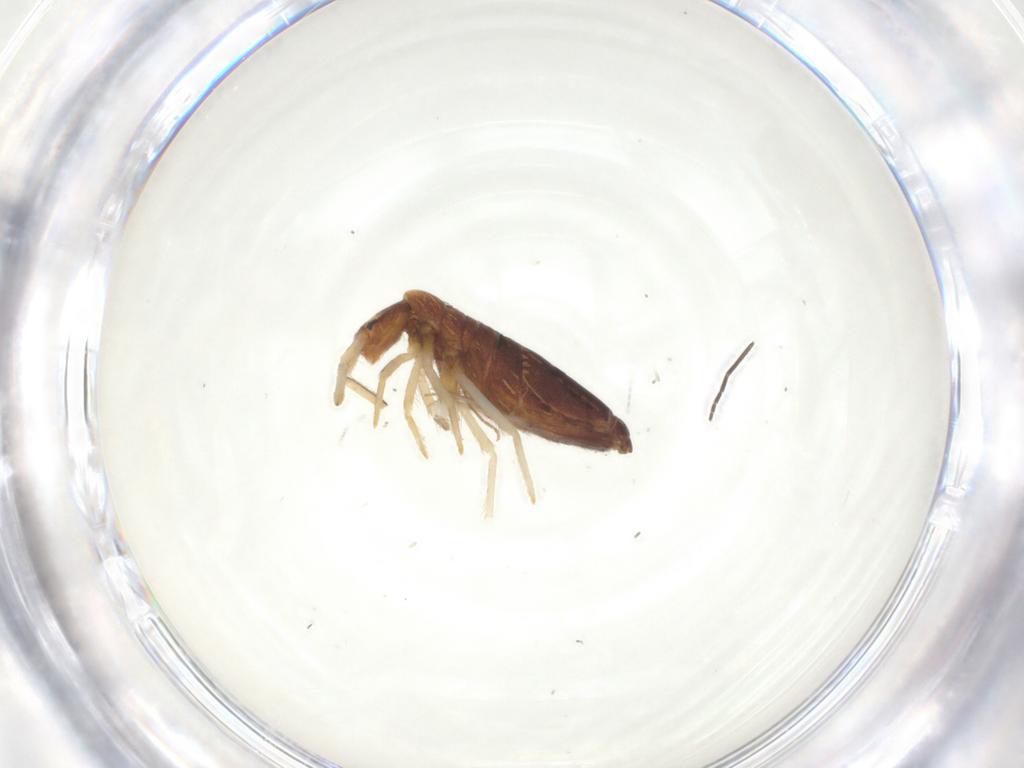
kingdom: Animalia
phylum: Arthropoda
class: Collembola
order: Entomobryomorpha
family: Entomobryidae
